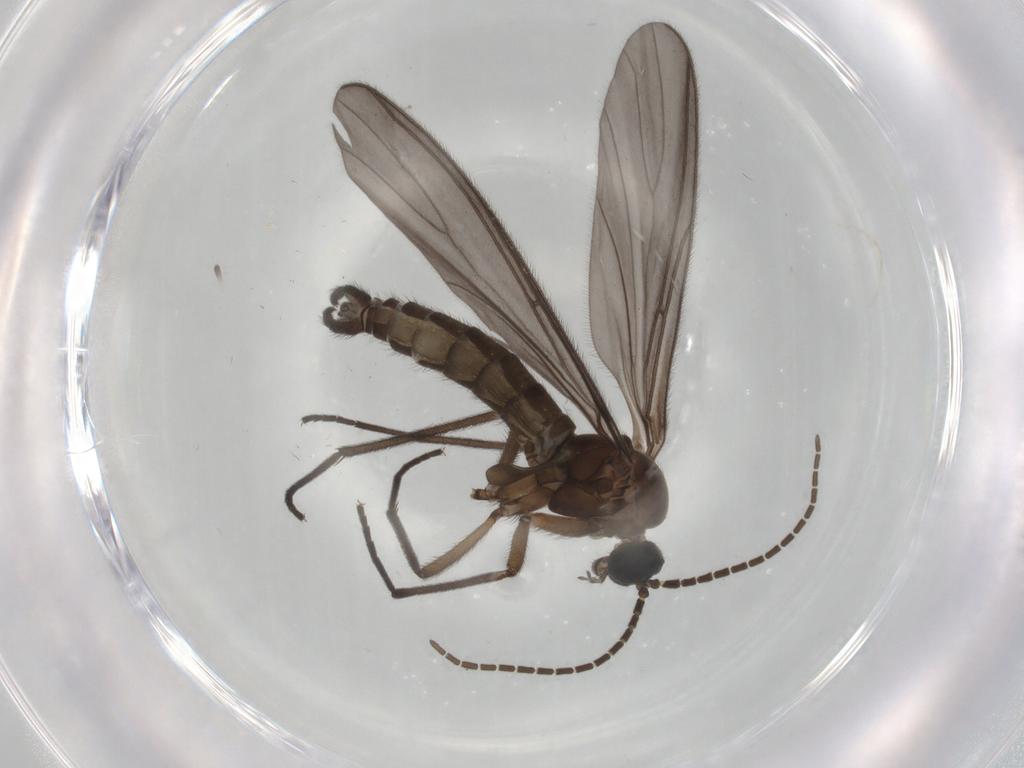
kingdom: Animalia
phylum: Arthropoda
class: Insecta
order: Diptera
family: Cecidomyiidae
